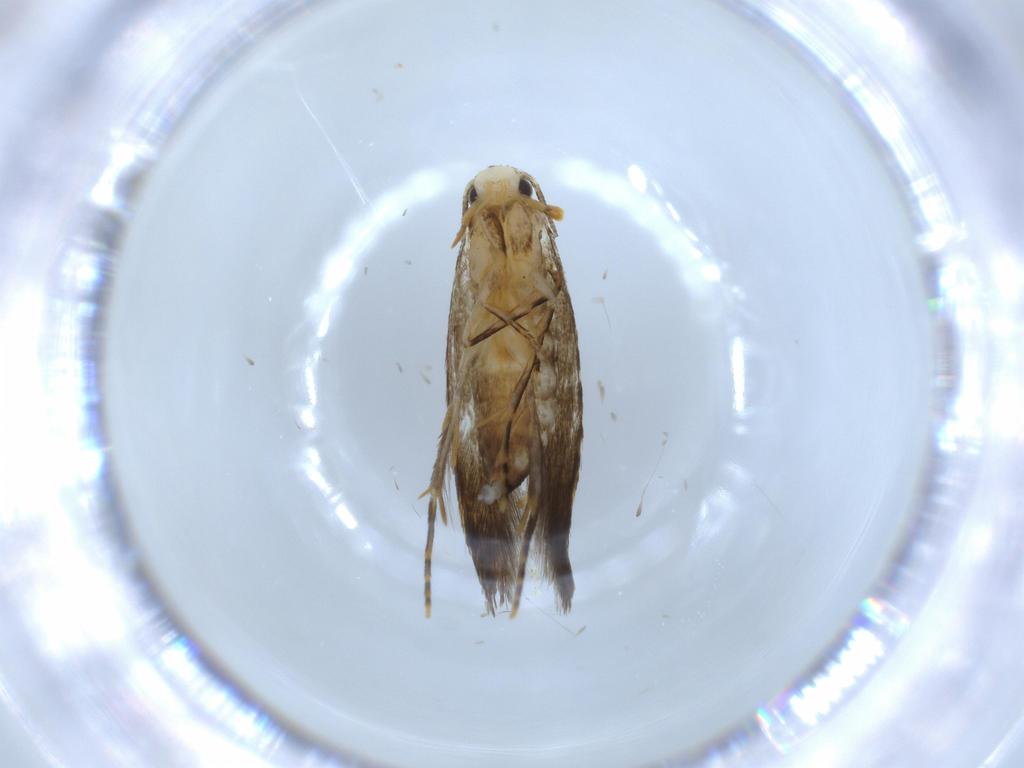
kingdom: Animalia
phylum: Arthropoda
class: Insecta
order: Lepidoptera
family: Tineidae
